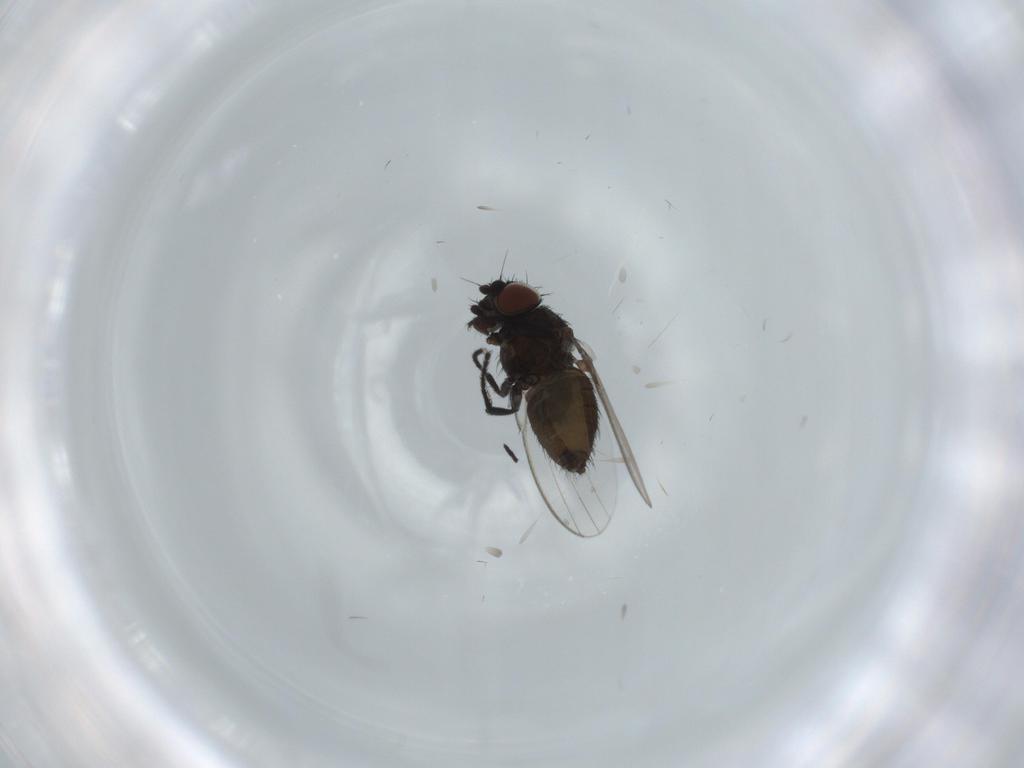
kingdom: Animalia
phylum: Arthropoda
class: Insecta
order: Diptera
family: Milichiidae
